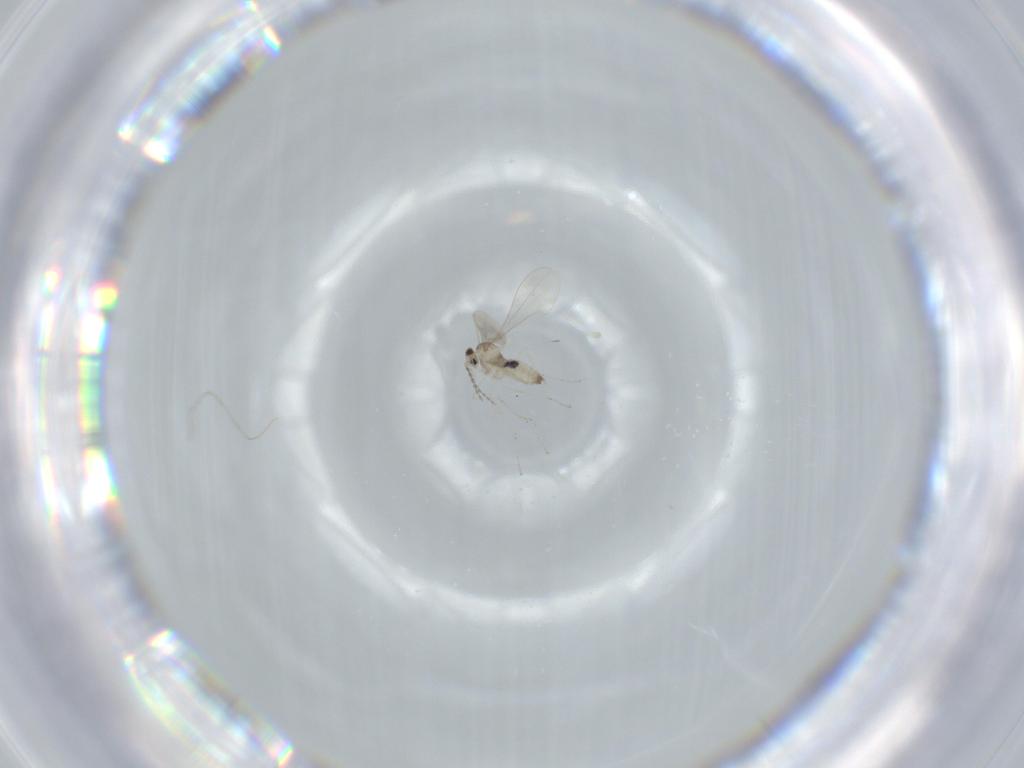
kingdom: Animalia
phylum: Arthropoda
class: Insecta
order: Diptera
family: Cecidomyiidae
